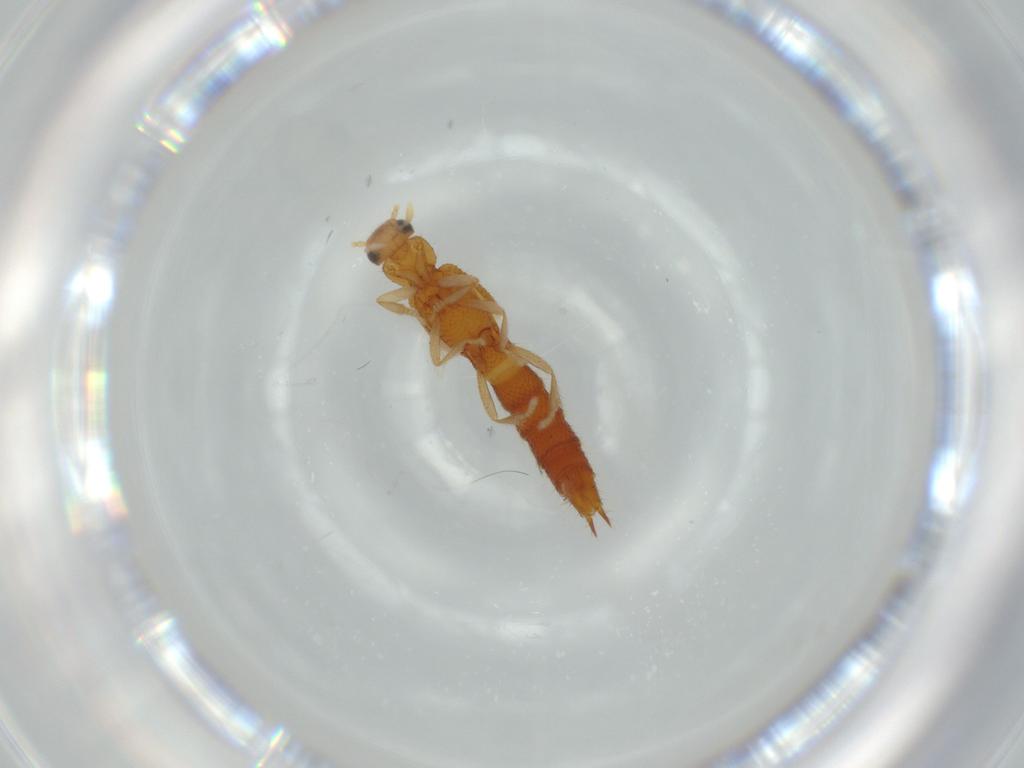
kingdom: Animalia
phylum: Arthropoda
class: Insecta
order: Coleoptera
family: Staphylinidae
